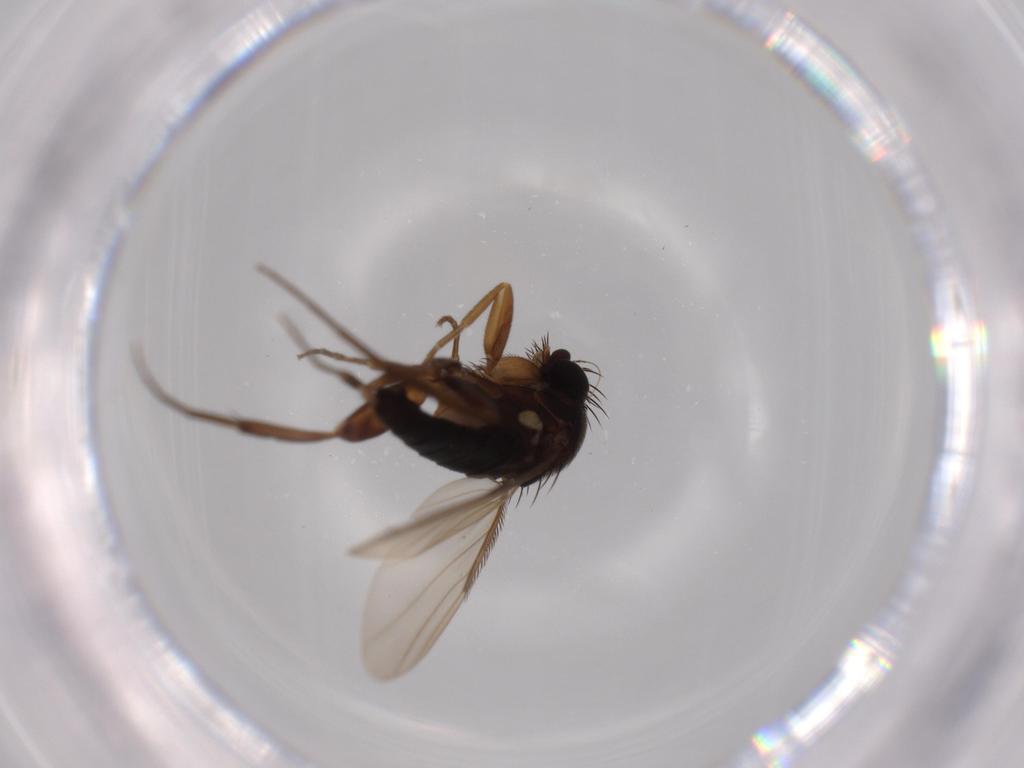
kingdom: Animalia
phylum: Arthropoda
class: Insecta
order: Diptera
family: Phoridae
